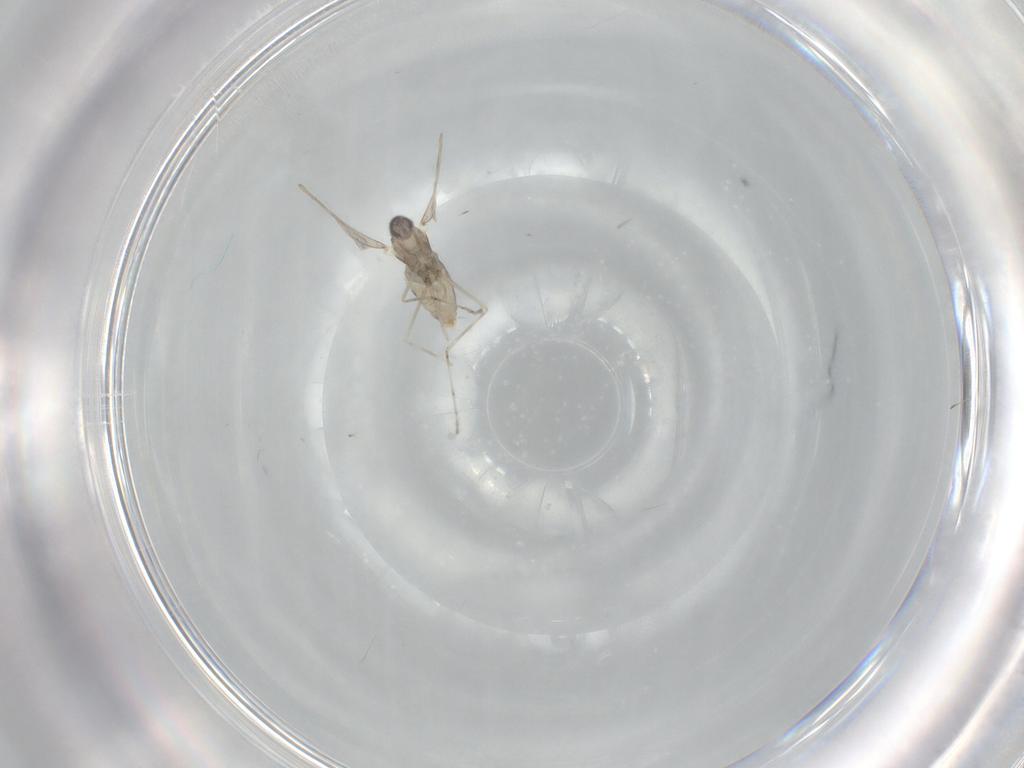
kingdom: Animalia
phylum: Arthropoda
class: Insecta
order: Diptera
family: Chironomidae
